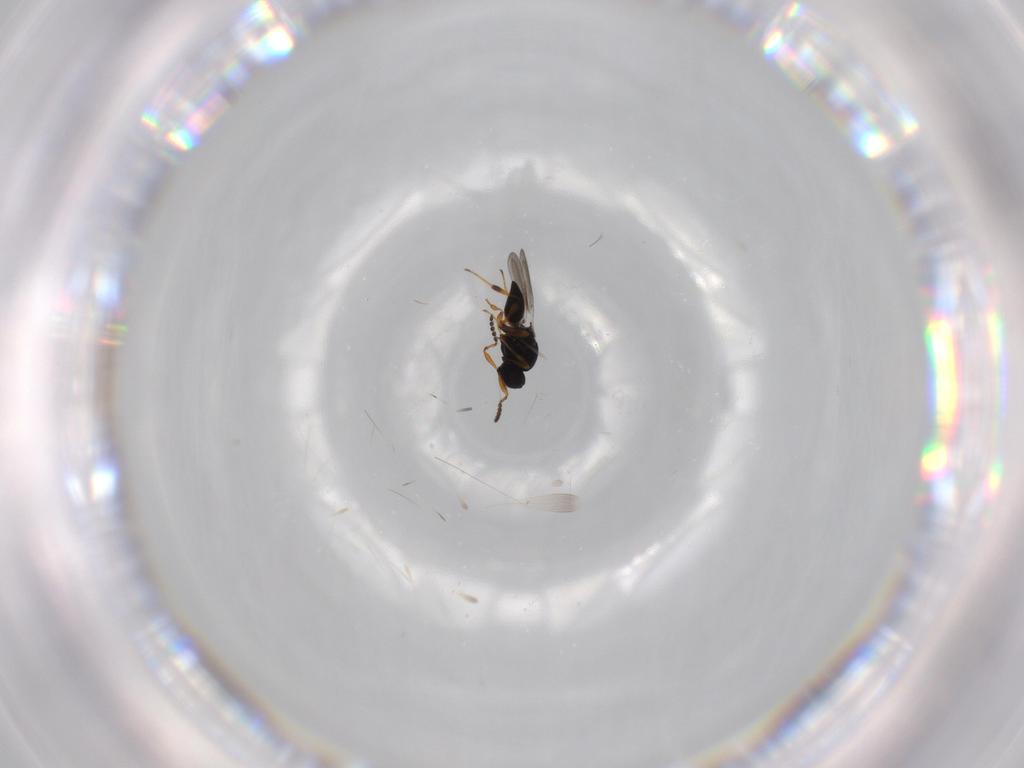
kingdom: Animalia
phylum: Arthropoda
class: Insecta
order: Hymenoptera
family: Platygastridae
